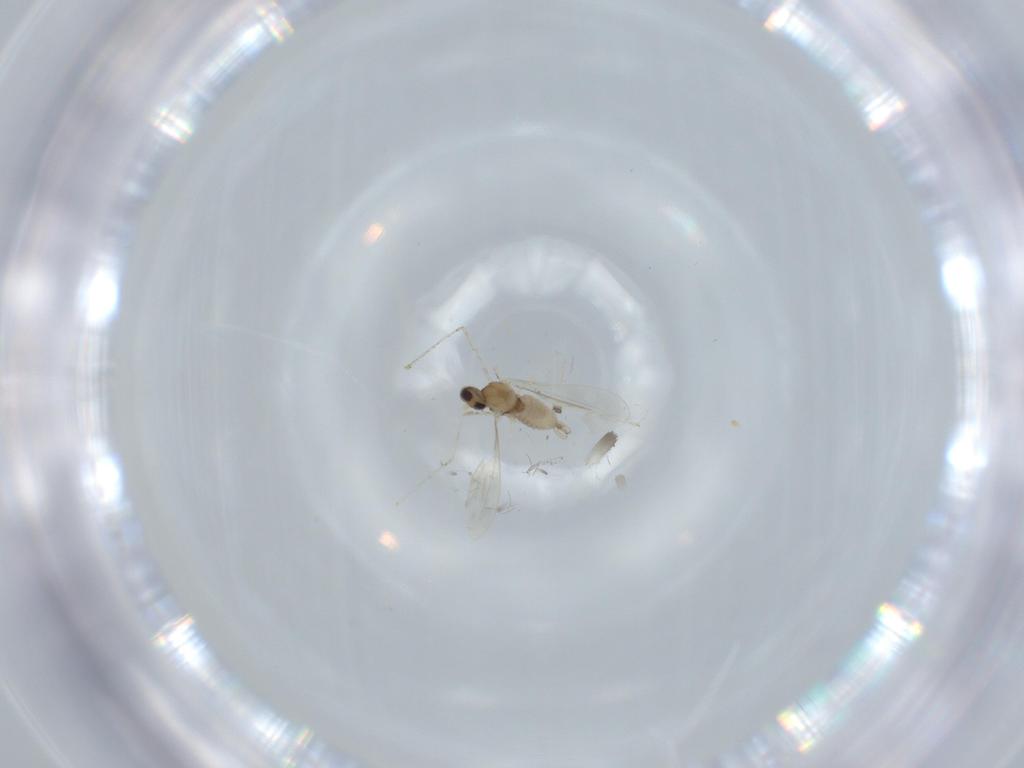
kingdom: Animalia
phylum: Arthropoda
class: Insecta
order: Diptera
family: Cecidomyiidae
